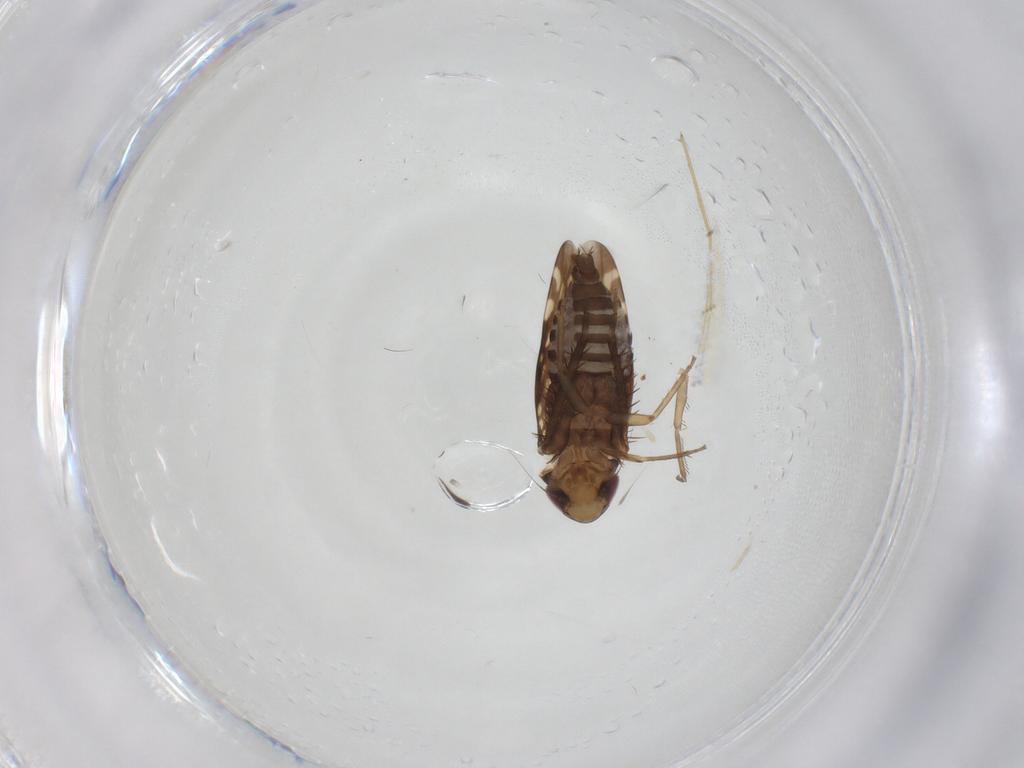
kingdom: Animalia
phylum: Arthropoda
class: Insecta
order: Hemiptera
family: Cicadellidae
